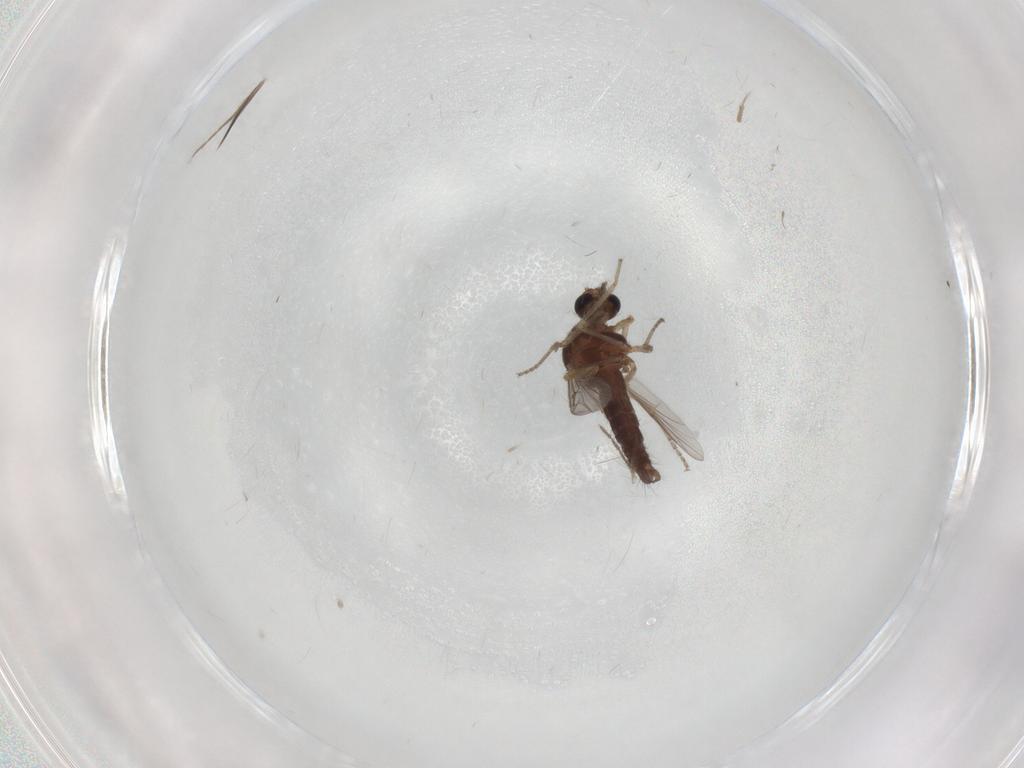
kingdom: Animalia
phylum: Arthropoda
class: Insecta
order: Diptera
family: Ceratopogonidae
